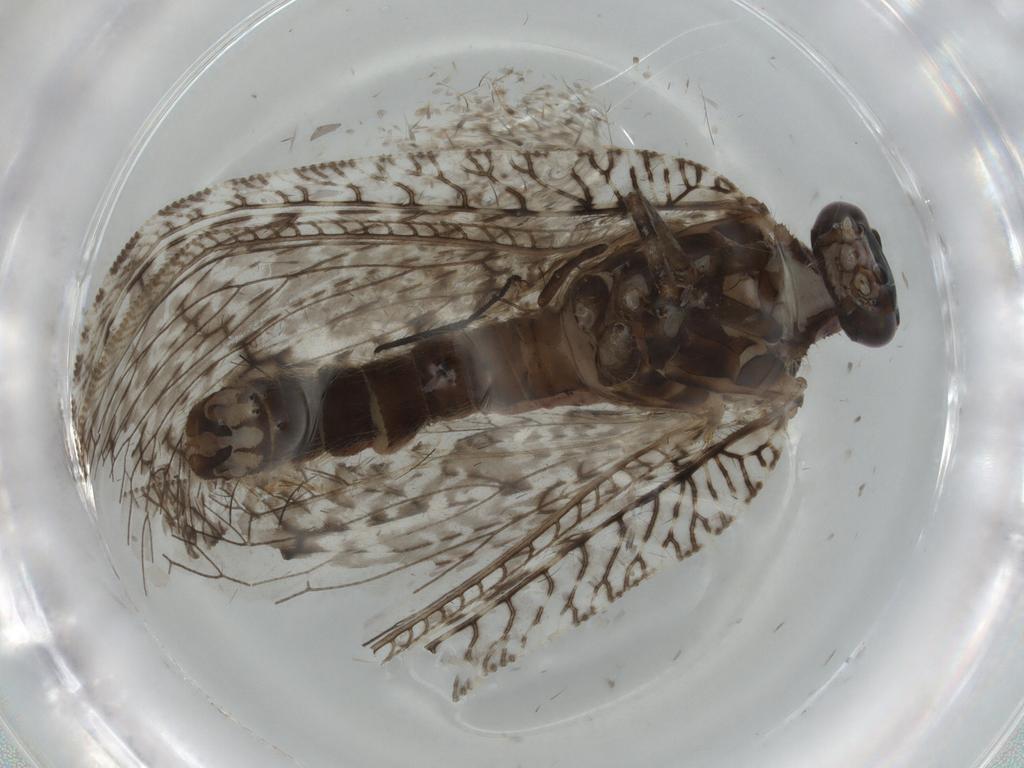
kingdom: Animalia
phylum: Arthropoda
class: Insecta
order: Neuroptera
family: Hemerobiidae
